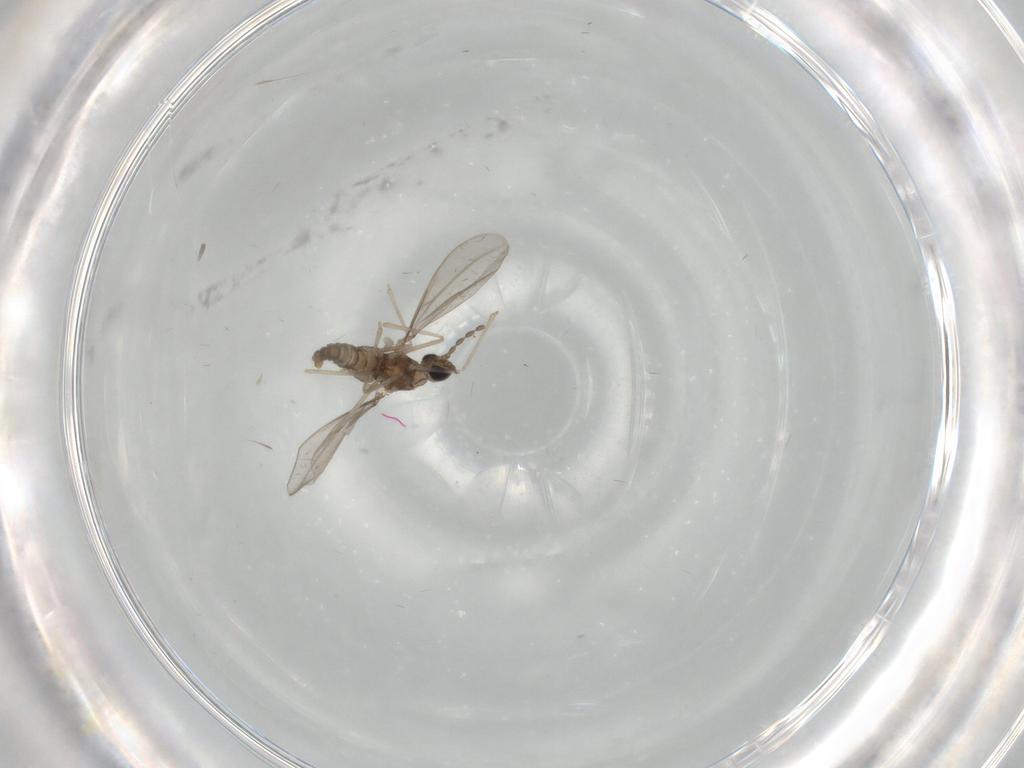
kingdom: Animalia
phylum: Arthropoda
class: Insecta
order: Diptera
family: Cecidomyiidae
